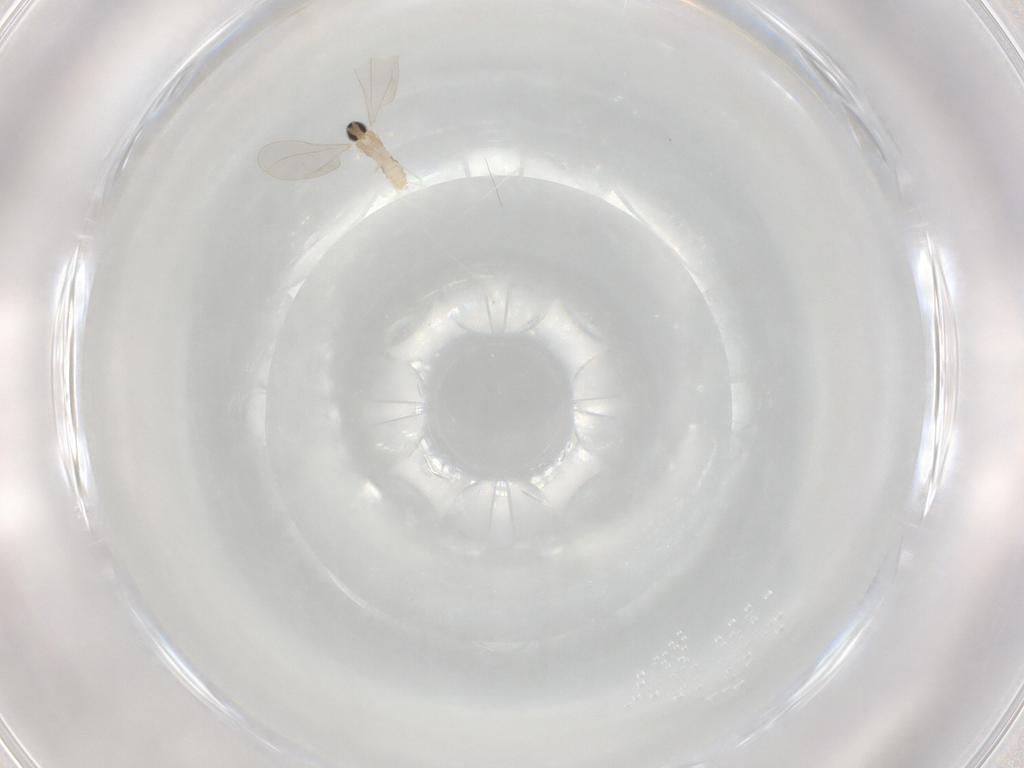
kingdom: Animalia
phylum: Arthropoda
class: Insecta
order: Diptera
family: Cecidomyiidae
